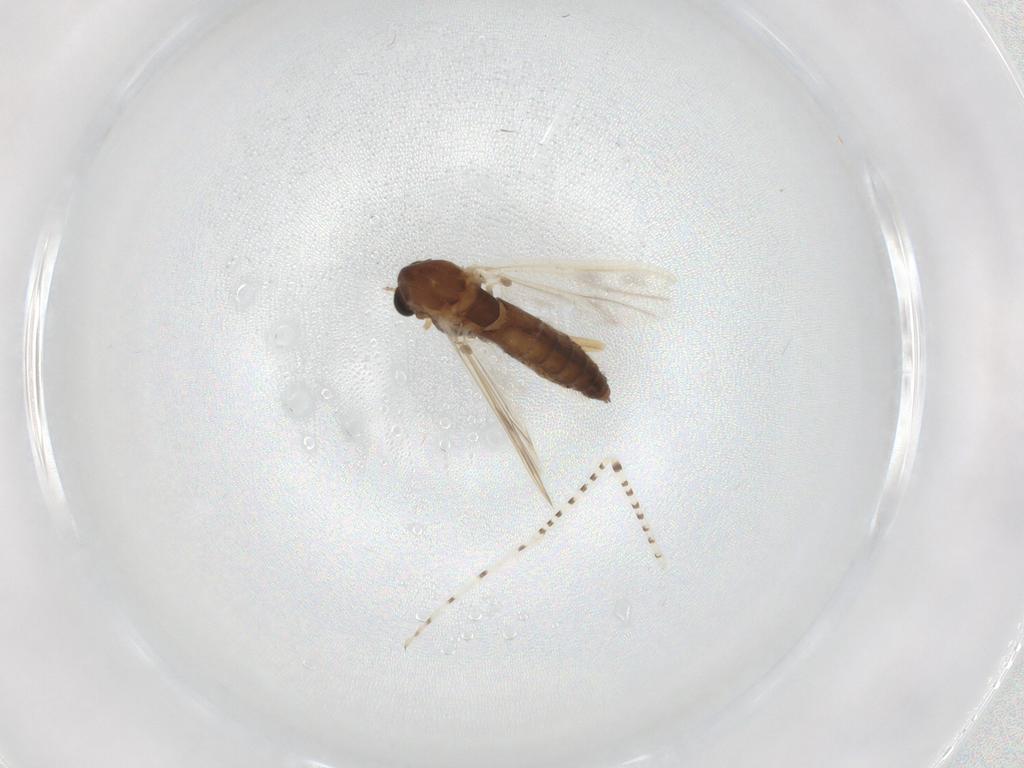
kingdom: Animalia
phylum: Arthropoda
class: Insecta
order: Diptera
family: Chironomidae
